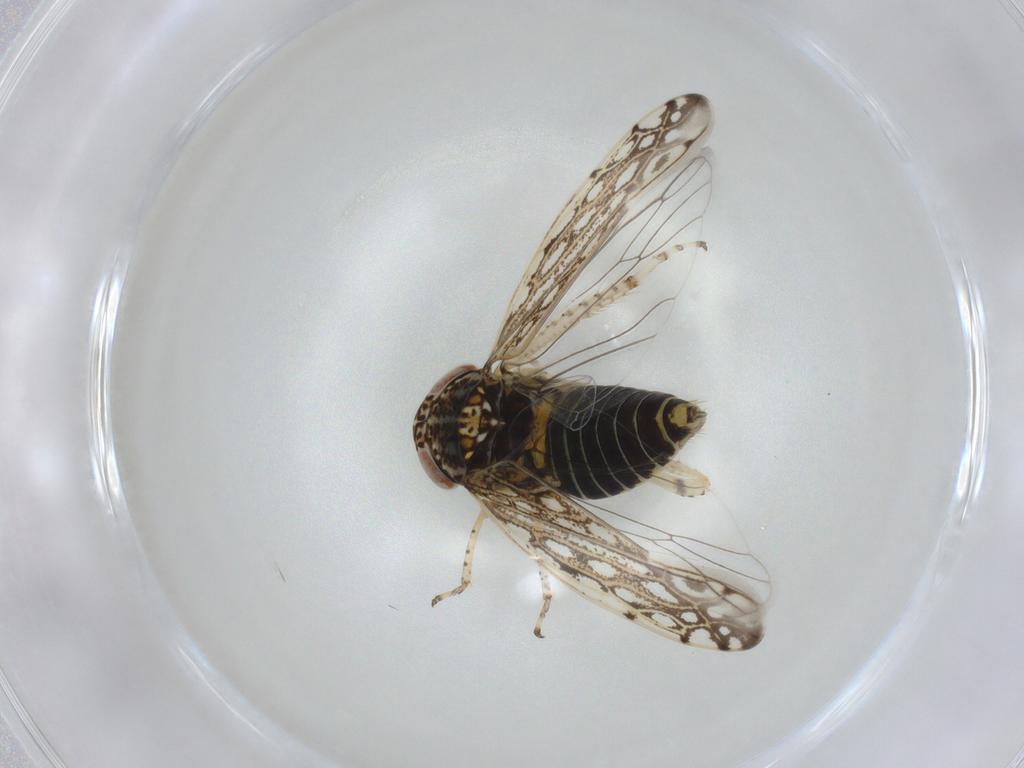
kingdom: Animalia
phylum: Arthropoda
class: Insecta
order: Hemiptera
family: Cicadellidae
